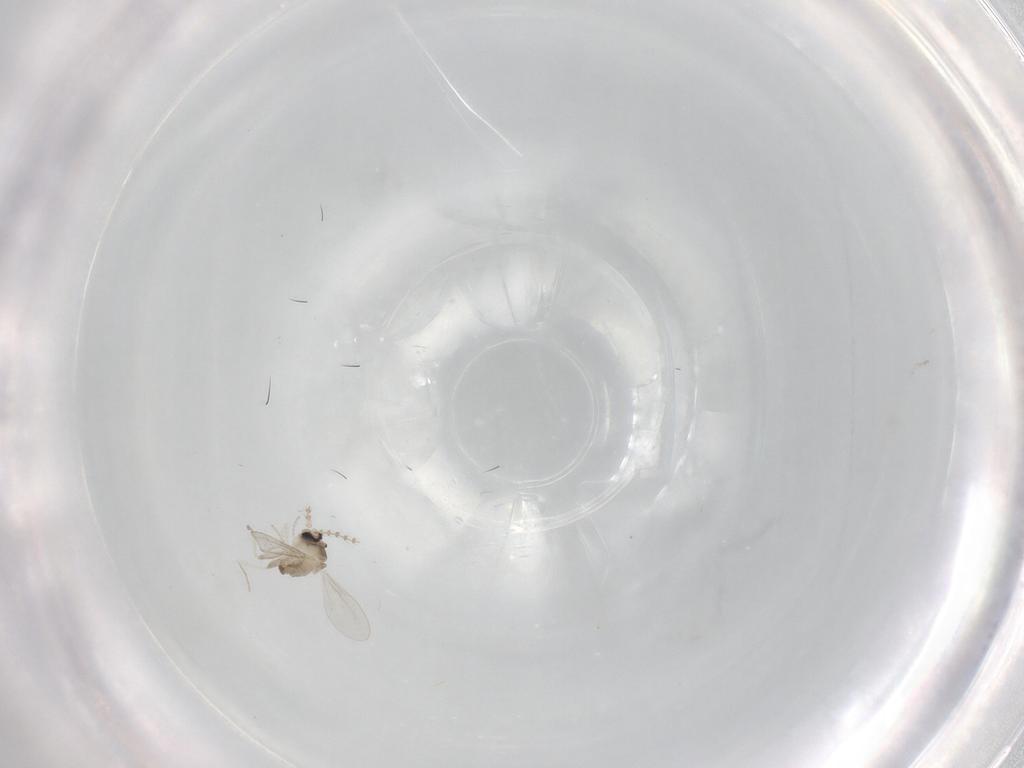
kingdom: Animalia
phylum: Arthropoda
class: Insecta
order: Diptera
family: Cecidomyiidae
